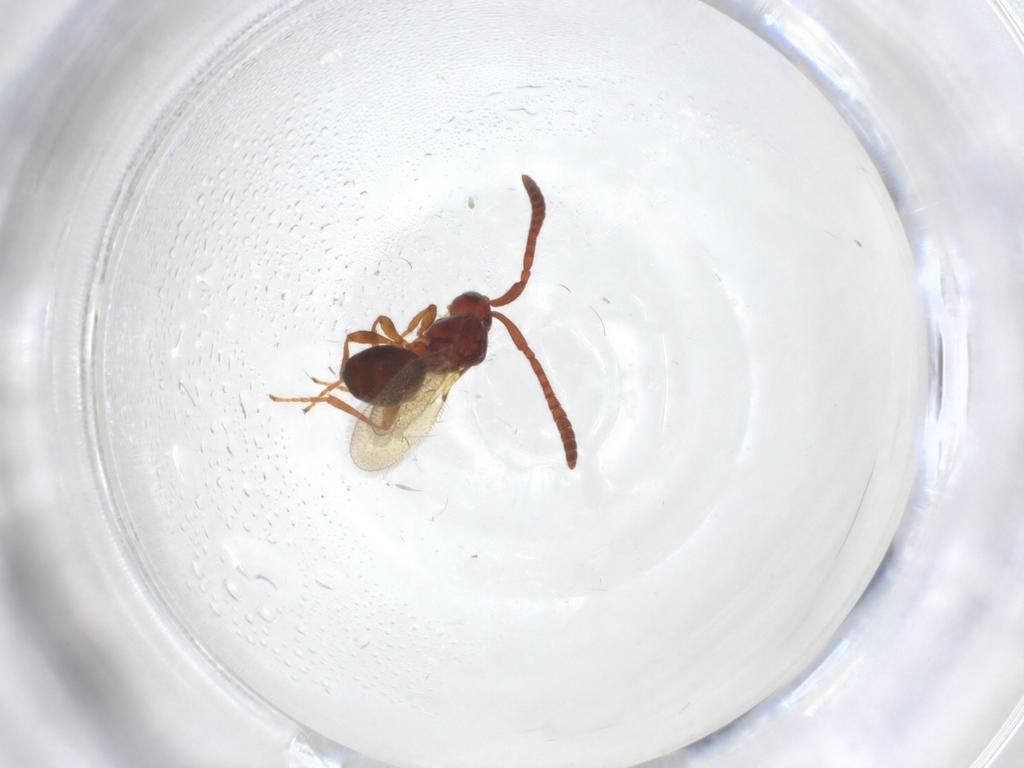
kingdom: Animalia
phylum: Arthropoda
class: Insecta
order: Hymenoptera
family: Diapriidae
